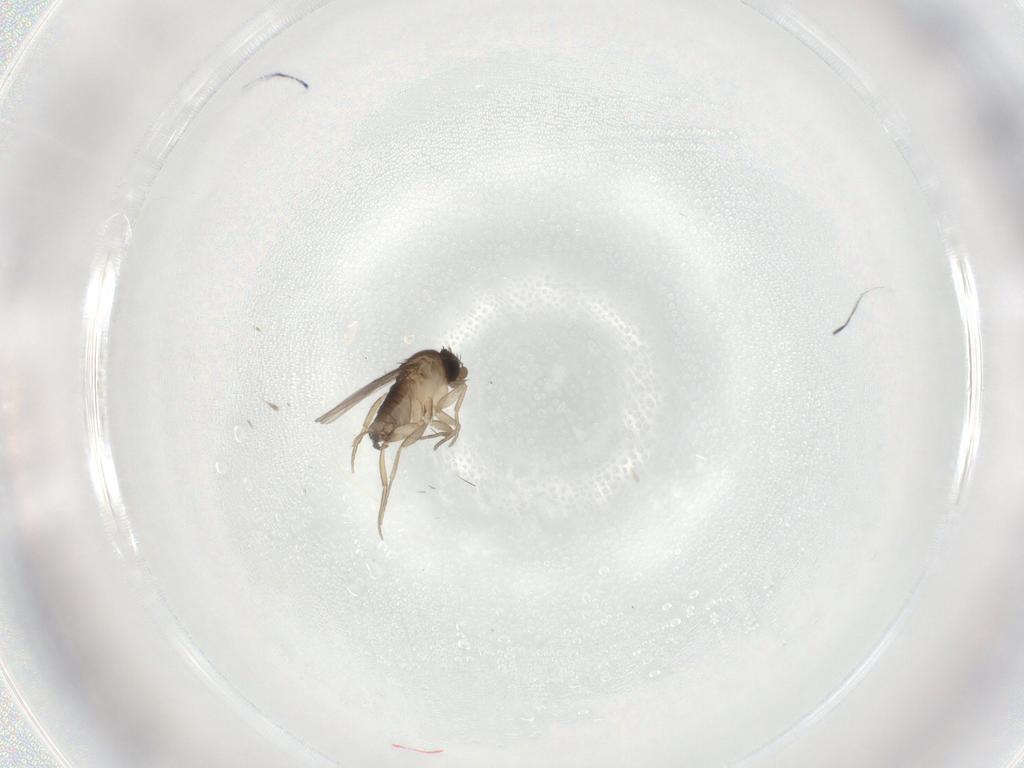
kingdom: Animalia
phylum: Arthropoda
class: Insecta
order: Diptera
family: Phoridae
